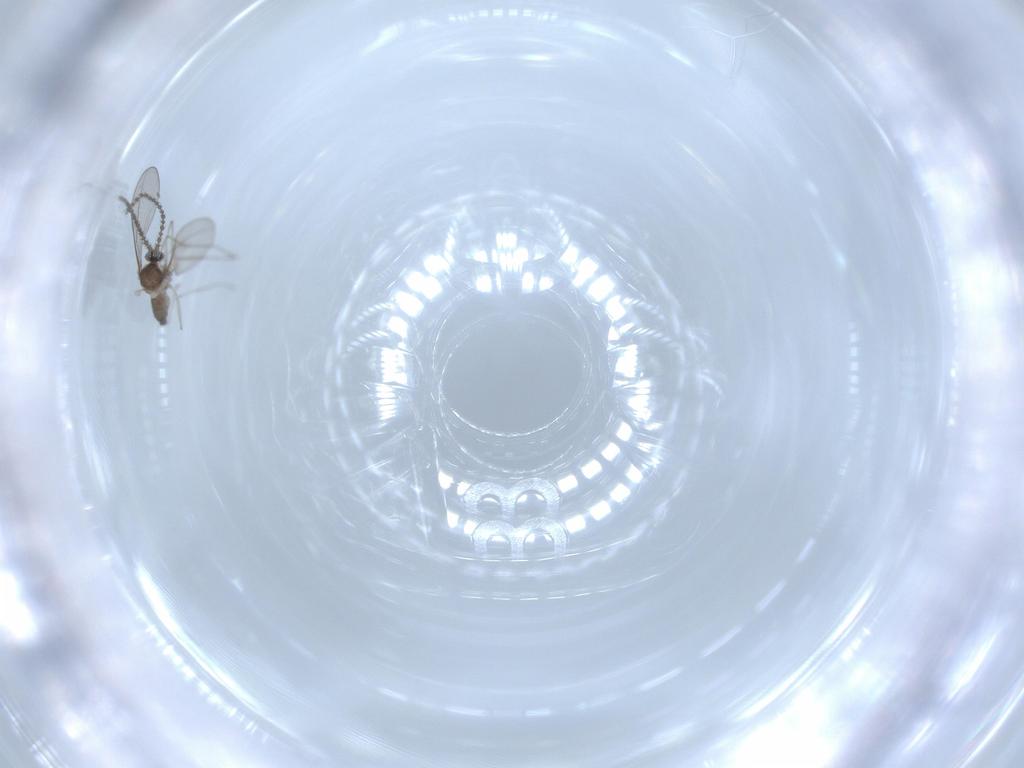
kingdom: Animalia
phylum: Arthropoda
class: Insecta
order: Diptera
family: Cecidomyiidae
